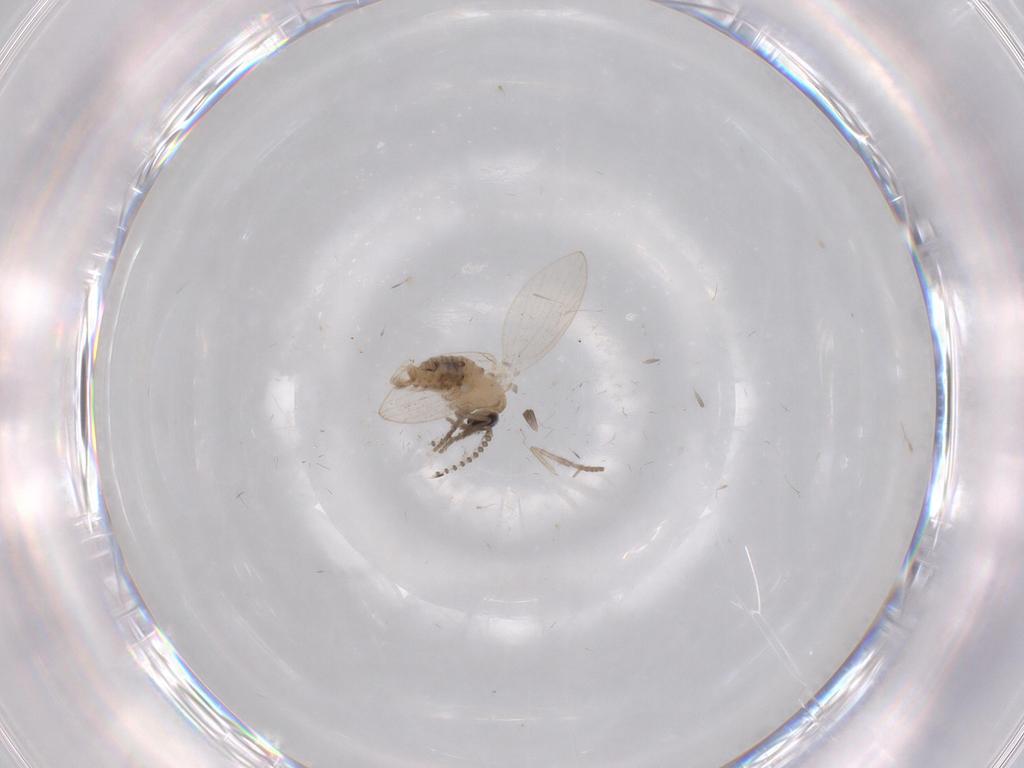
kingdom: Animalia
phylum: Arthropoda
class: Insecta
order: Diptera
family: Psychodidae
